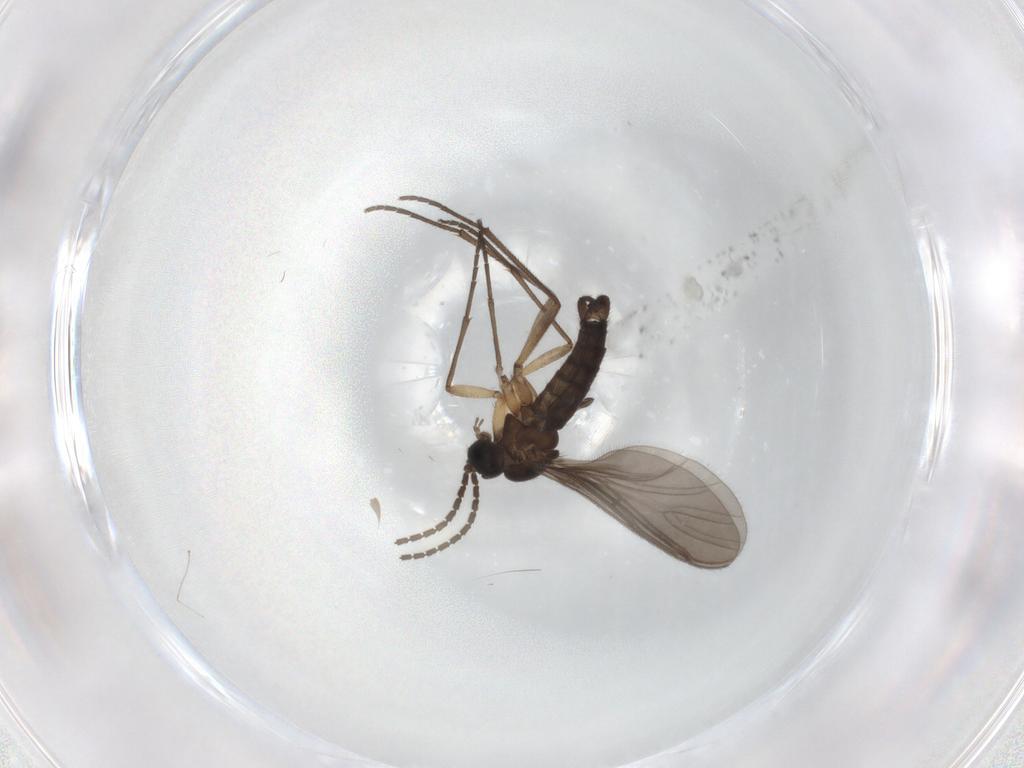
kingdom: Animalia
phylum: Arthropoda
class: Insecta
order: Diptera
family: Sciaridae
